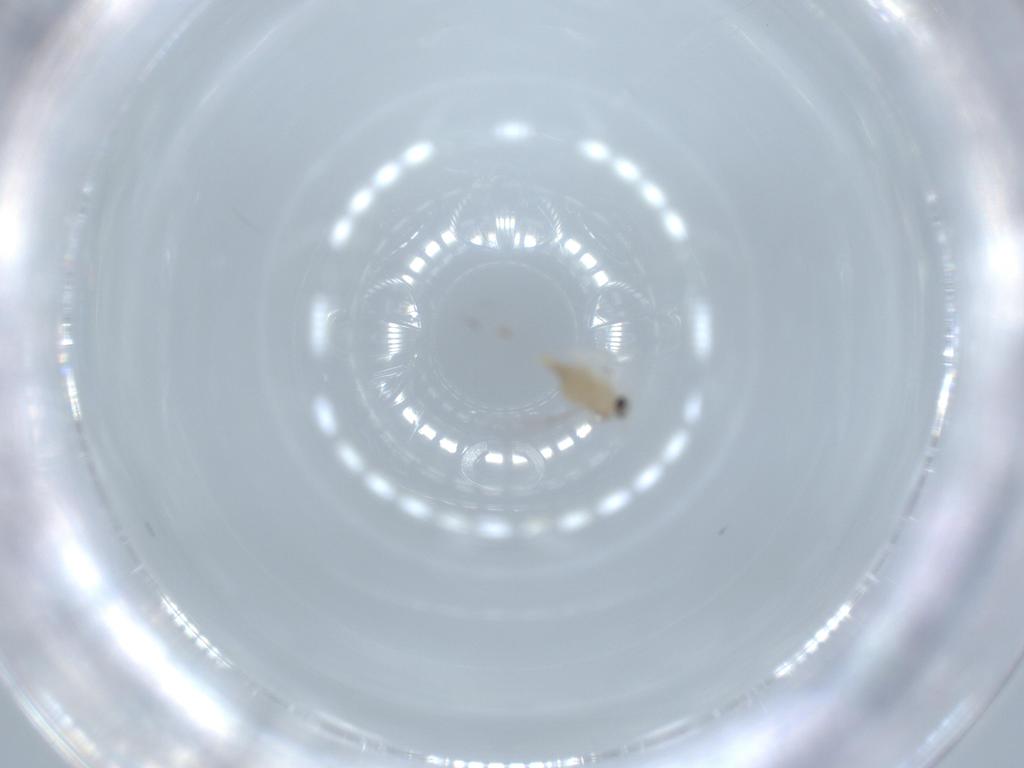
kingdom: Animalia
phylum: Arthropoda
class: Insecta
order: Diptera
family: Cecidomyiidae
